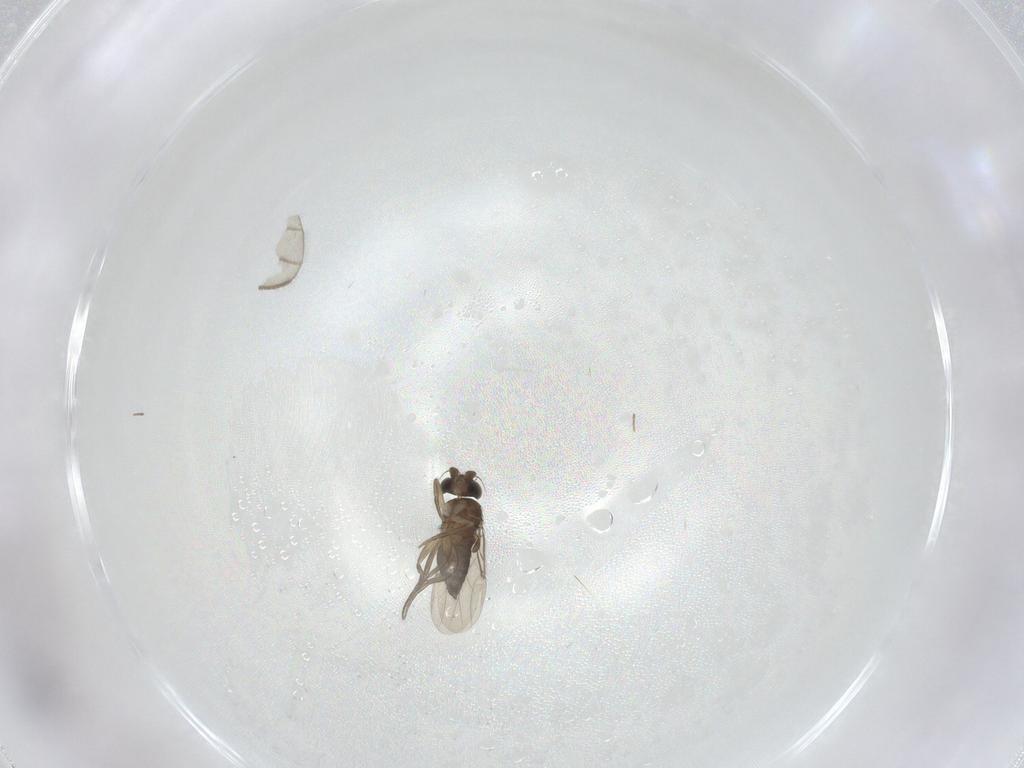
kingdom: Animalia
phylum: Arthropoda
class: Insecta
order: Diptera
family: Phoridae
